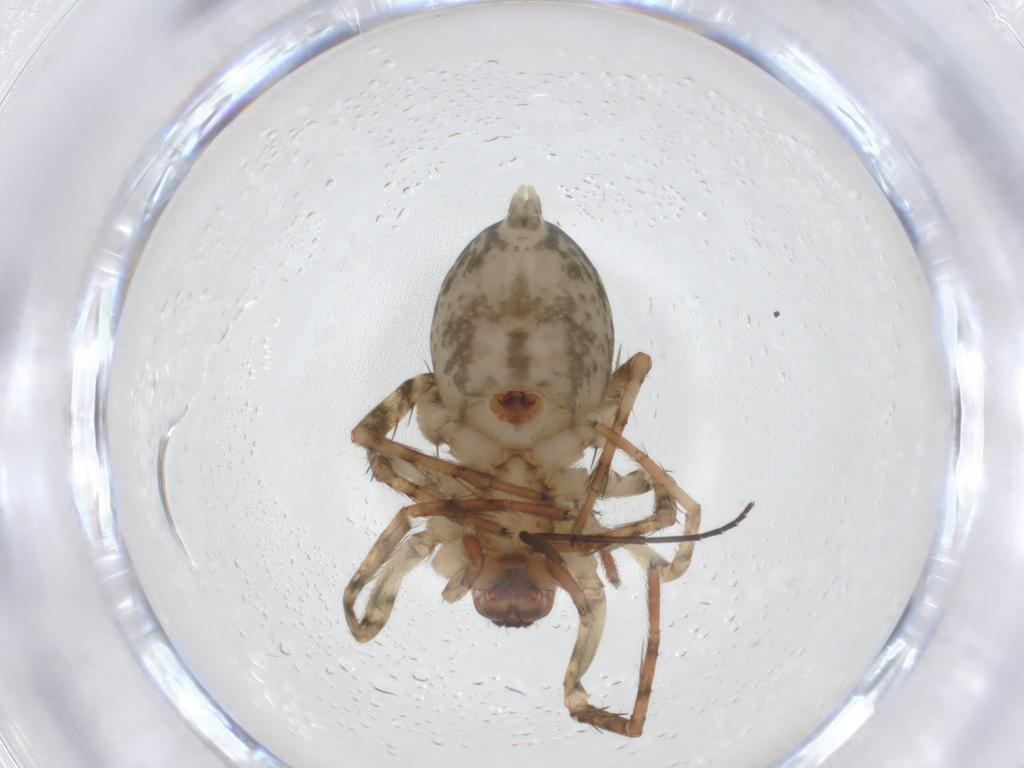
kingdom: Animalia
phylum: Arthropoda
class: Arachnida
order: Araneae
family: Anyphaenidae
